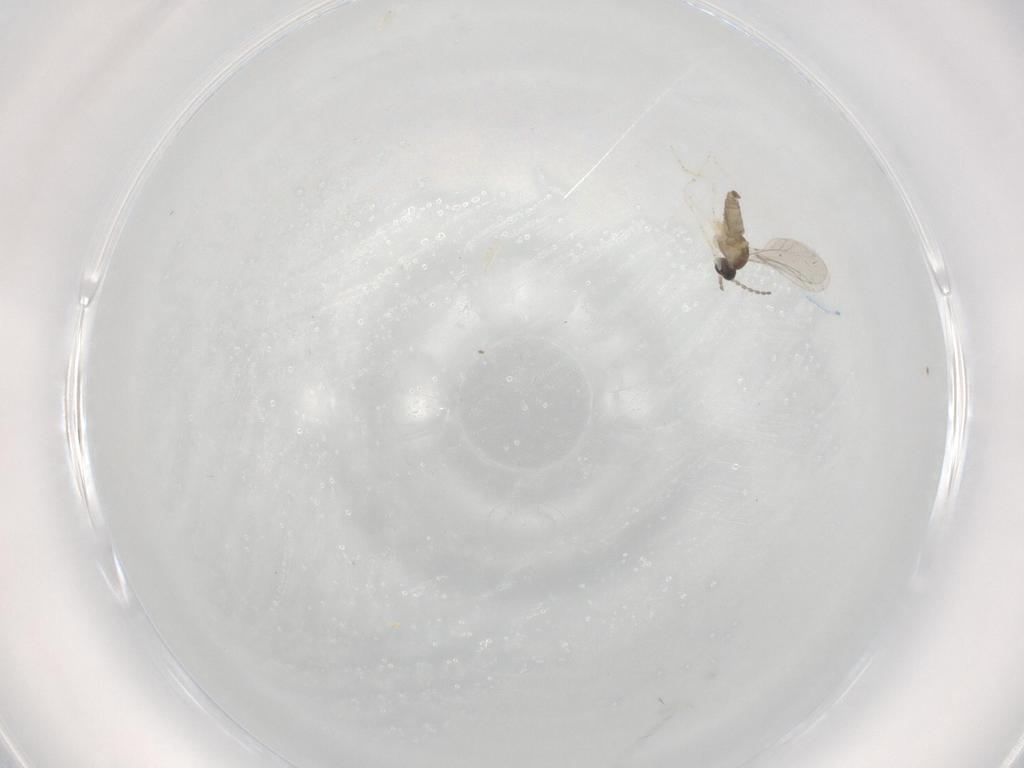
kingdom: Animalia
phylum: Arthropoda
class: Insecta
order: Diptera
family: Cecidomyiidae
